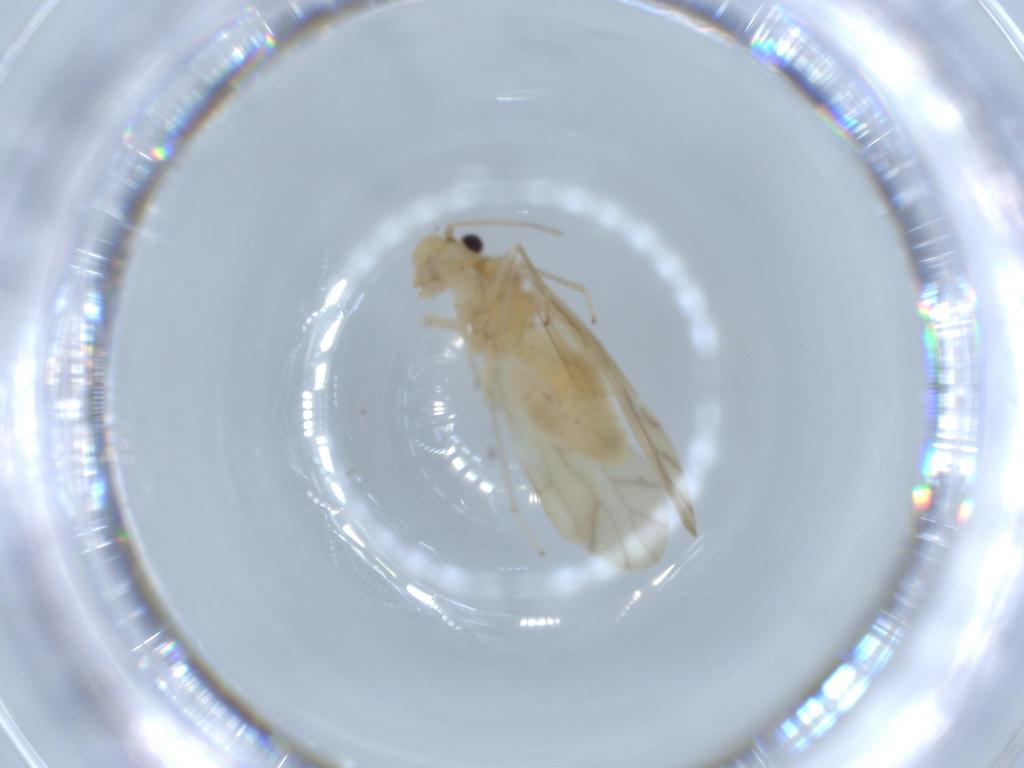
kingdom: Animalia
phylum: Arthropoda
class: Insecta
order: Psocodea
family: Caeciliusidae
